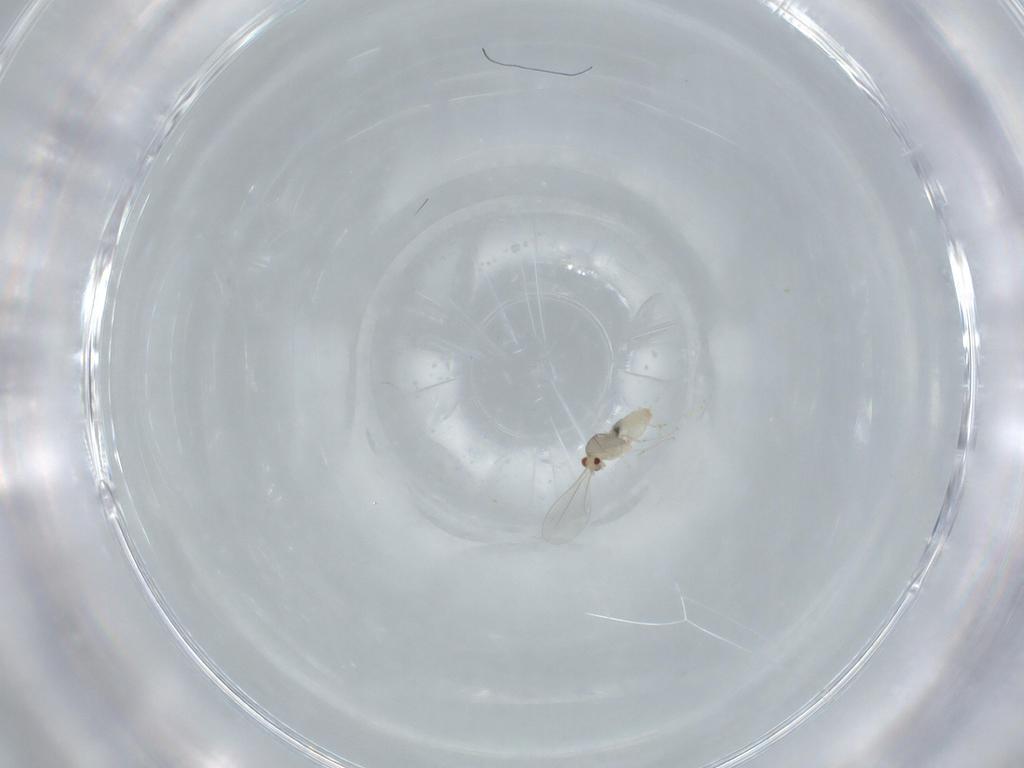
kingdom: Animalia
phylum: Arthropoda
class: Insecta
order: Diptera
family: Cecidomyiidae
